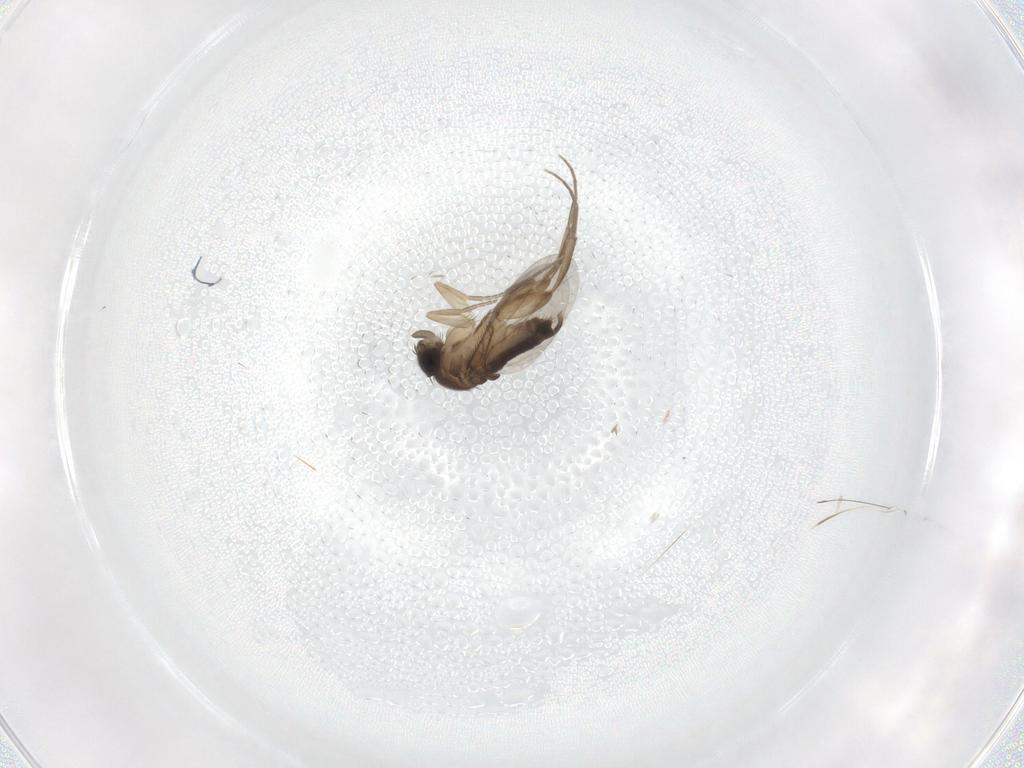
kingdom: Animalia
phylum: Arthropoda
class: Insecta
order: Diptera
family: Phoridae
